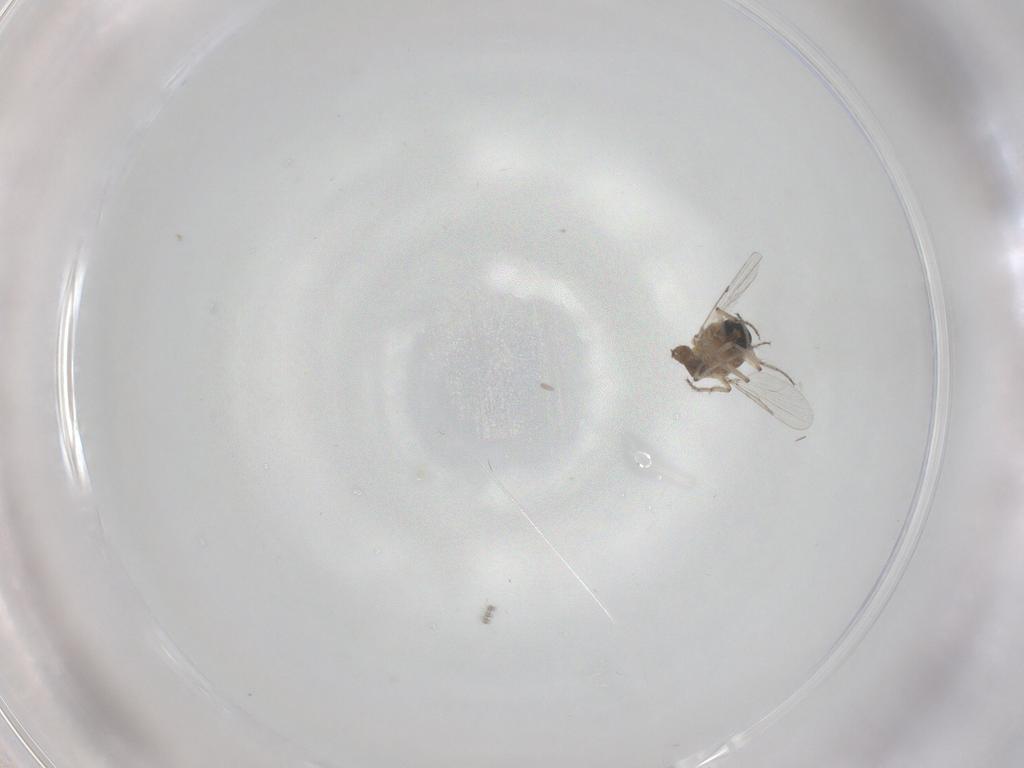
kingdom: Animalia
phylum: Arthropoda
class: Insecta
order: Diptera
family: Ceratopogonidae
